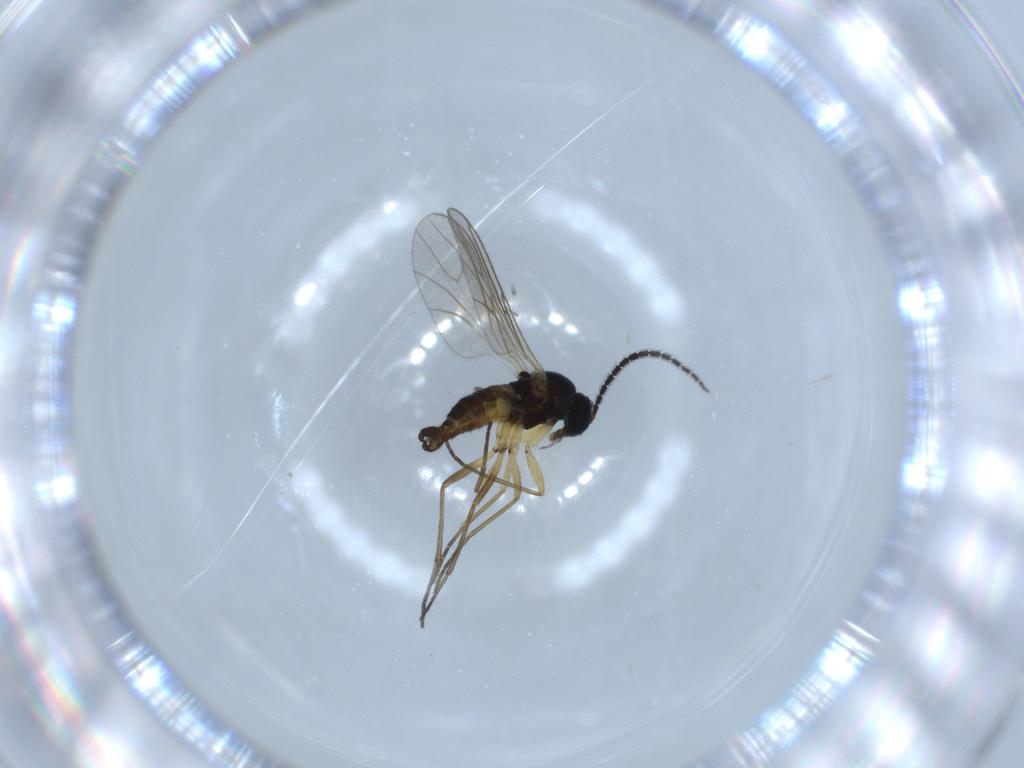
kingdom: Animalia
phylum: Arthropoda
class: Insecta
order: Diptera
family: Sciaridae
